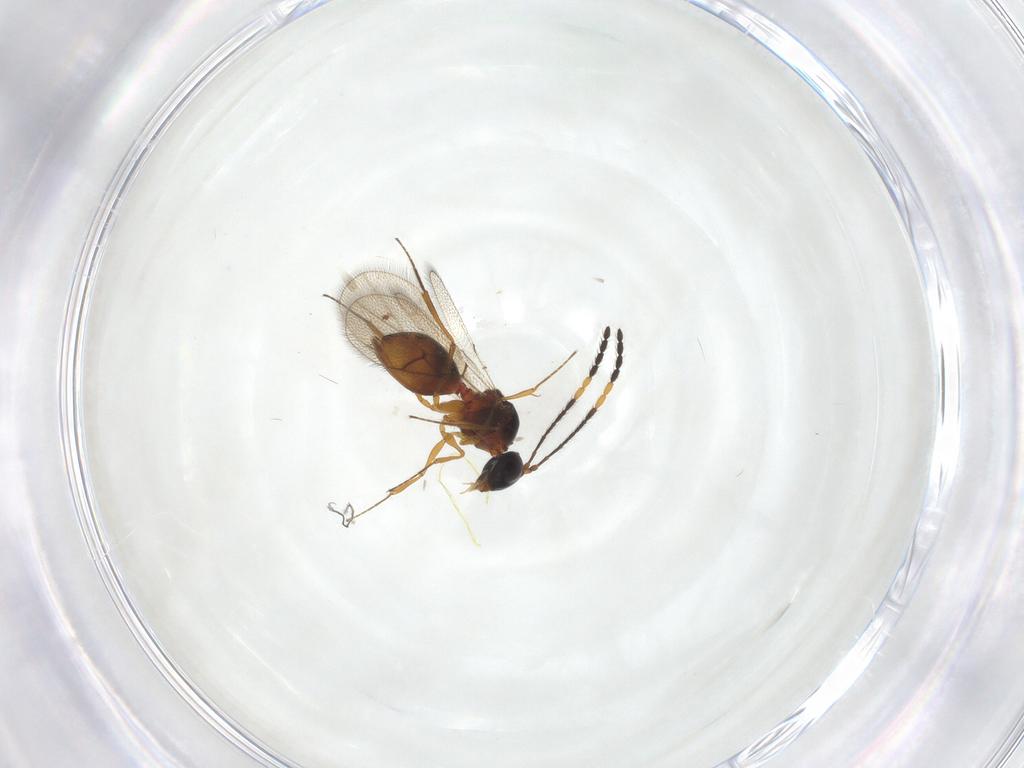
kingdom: Animalia
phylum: Arthropoda
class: Insecta
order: Hymenoptera
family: Figitidae
